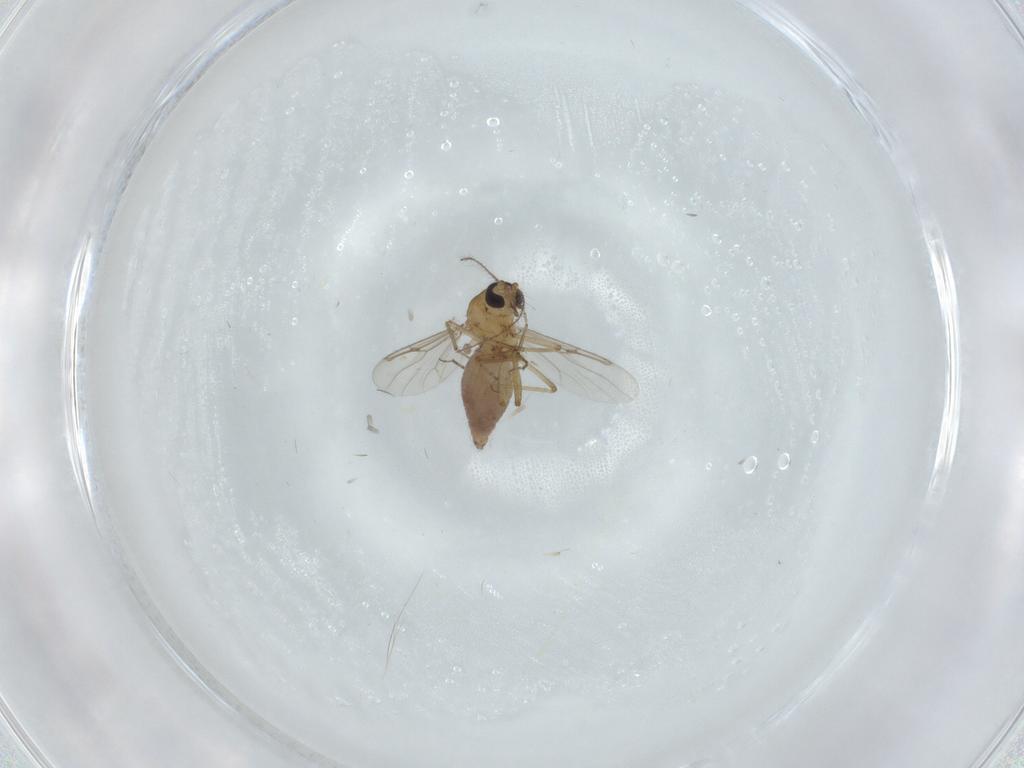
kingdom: Animalia
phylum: Arthropoda
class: Insecta
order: Diptera
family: Ceratopogonidae
